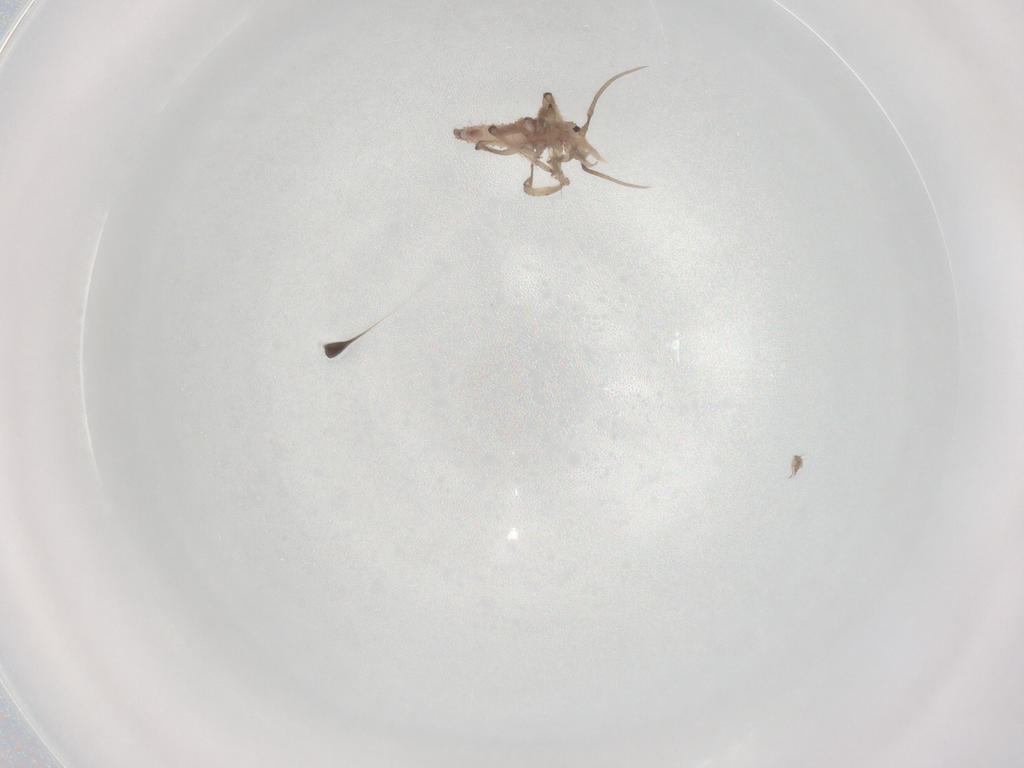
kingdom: Animalia
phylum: Arthropoda
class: Insecta
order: Neuroptera
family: Hemerobiidae
